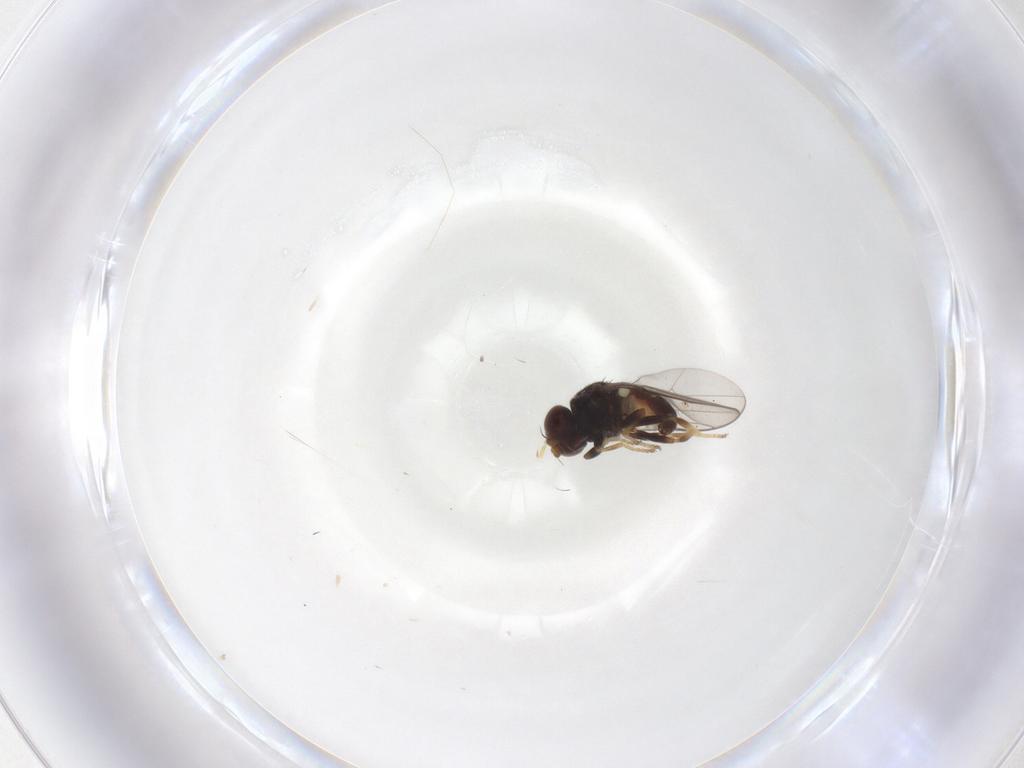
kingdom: Animalia
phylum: Arthropoda
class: Insecta
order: Diptera
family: Chloropidae
